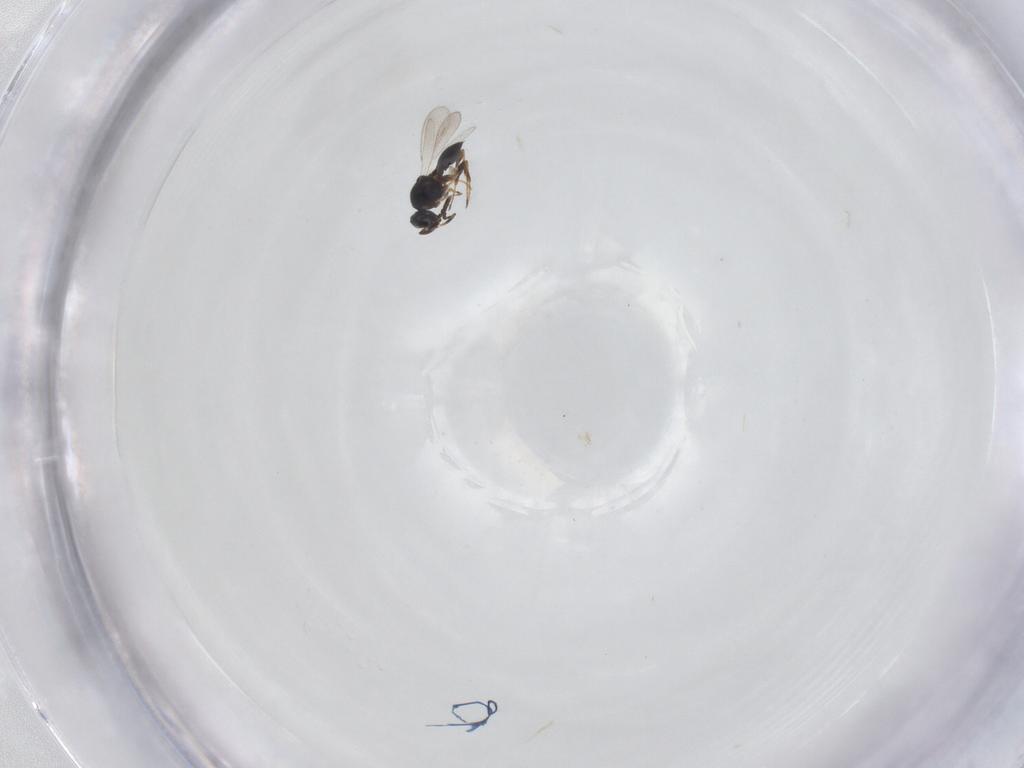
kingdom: Animalia
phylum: Arthropoda
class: Insecta
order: Hymenoptera
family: Platygastridae
